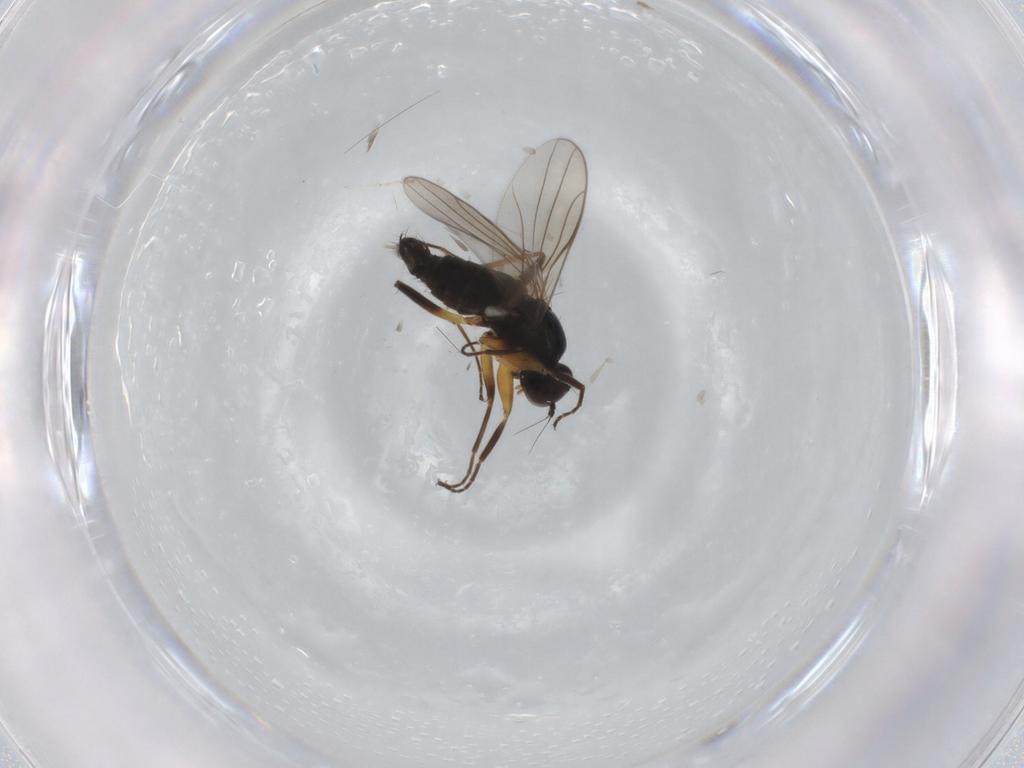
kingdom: Animalia
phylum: Arthropoda
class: Insecta
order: Diptera
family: Hybotidae
